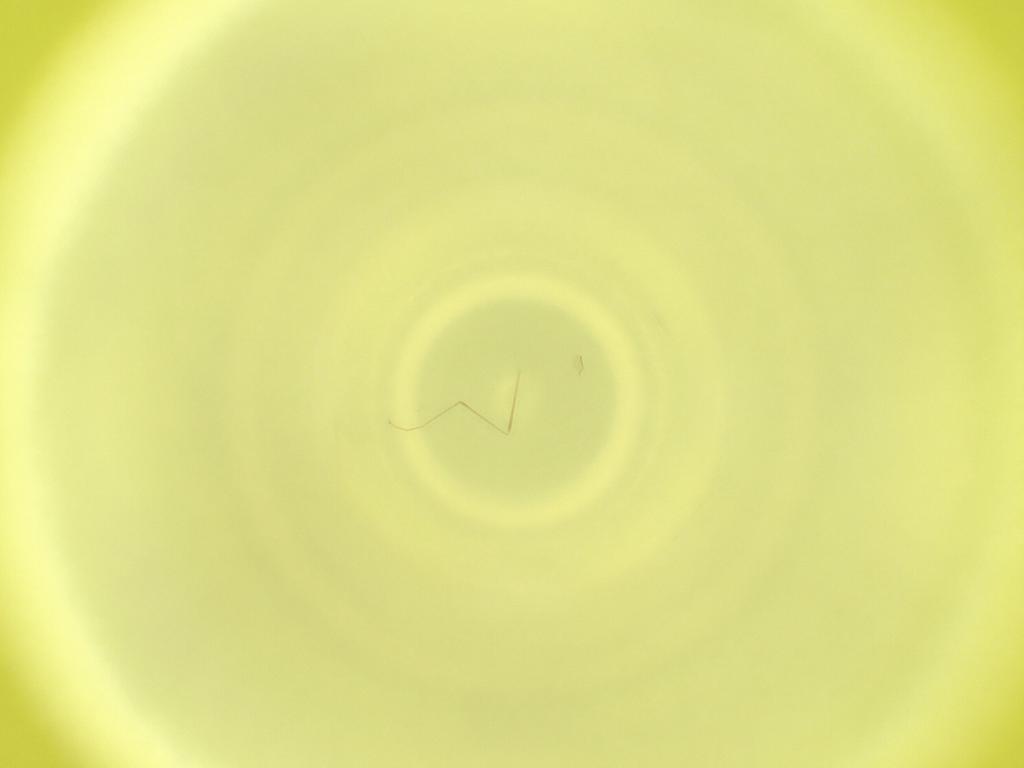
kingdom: Animalia
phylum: Arthropoda
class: Insecta
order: Diptera
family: Cecidomyiidae
